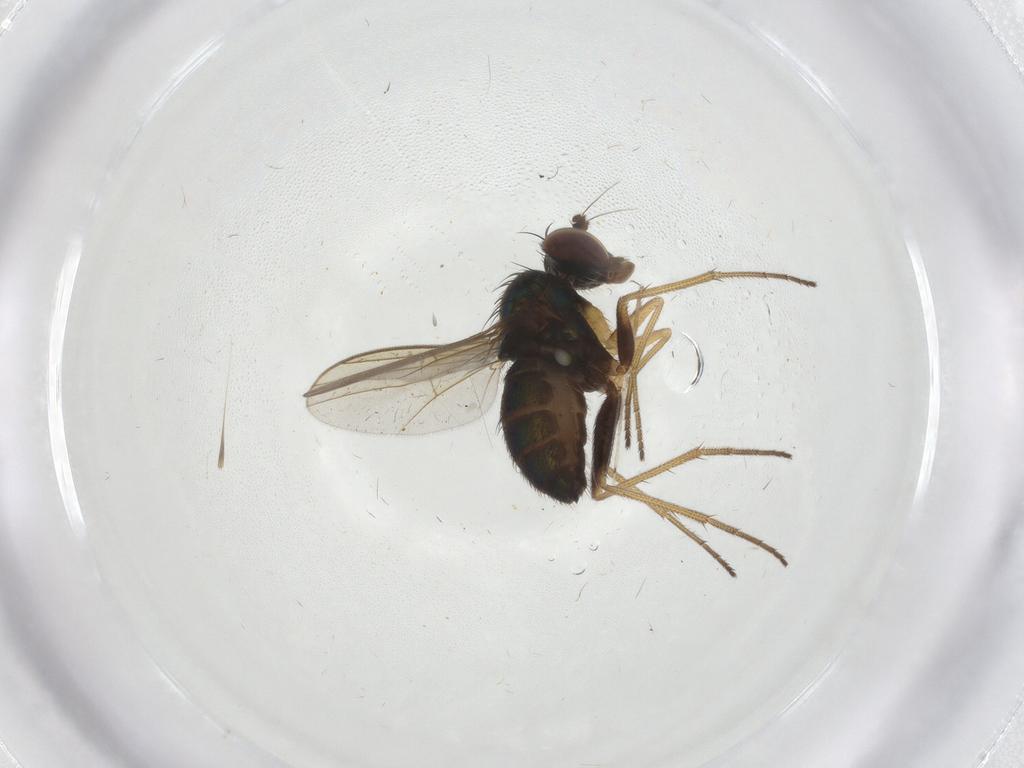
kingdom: Animalia
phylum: Arthropoda
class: Insecta
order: Diptera
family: Dolichopodidae
